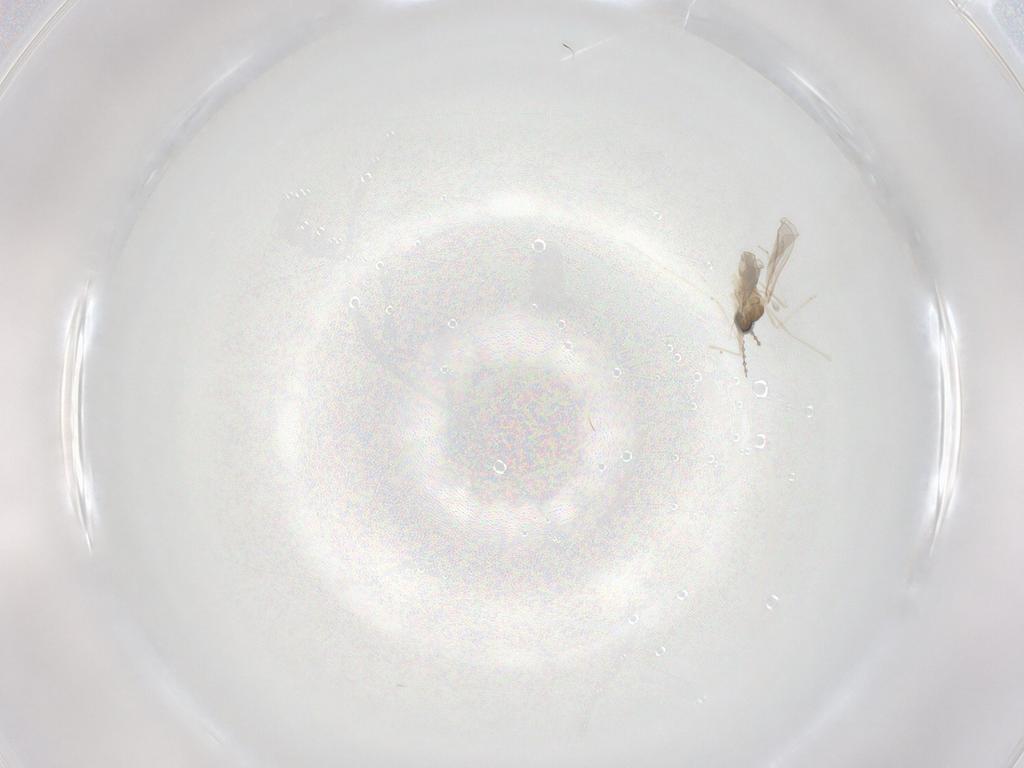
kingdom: Animalia
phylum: Arthropoda
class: Insecta
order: Diptera
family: Cecidomyiidae
